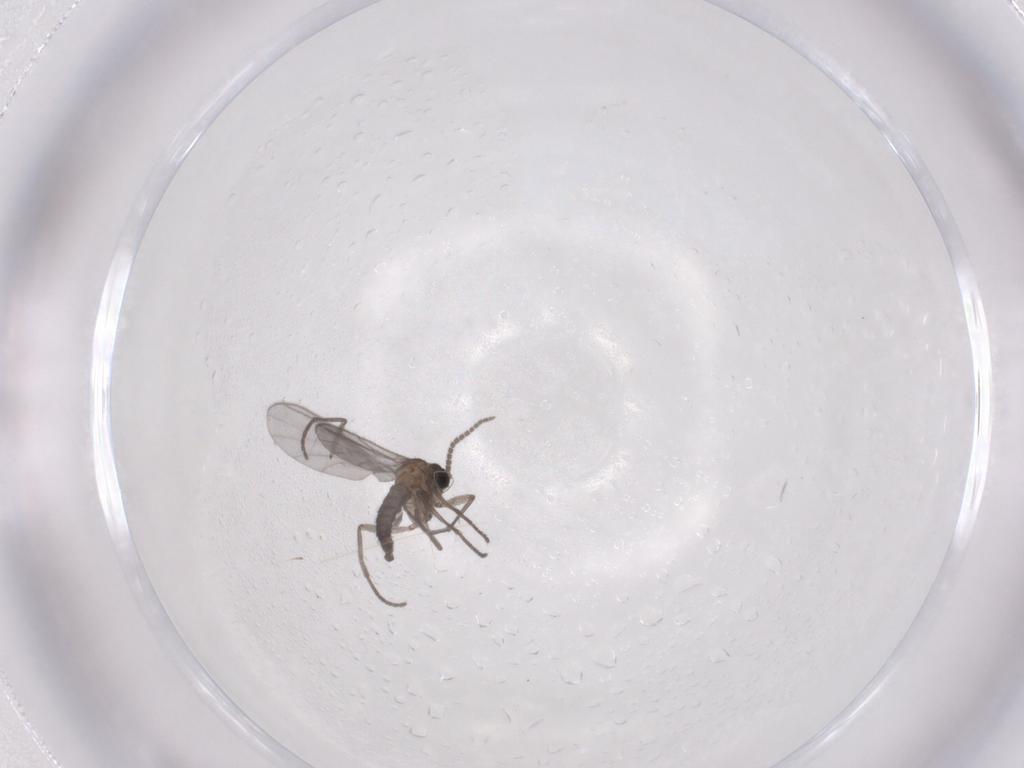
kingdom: Animalia
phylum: Arthropoda
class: Insecta
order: Diptera
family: Sciaridae
